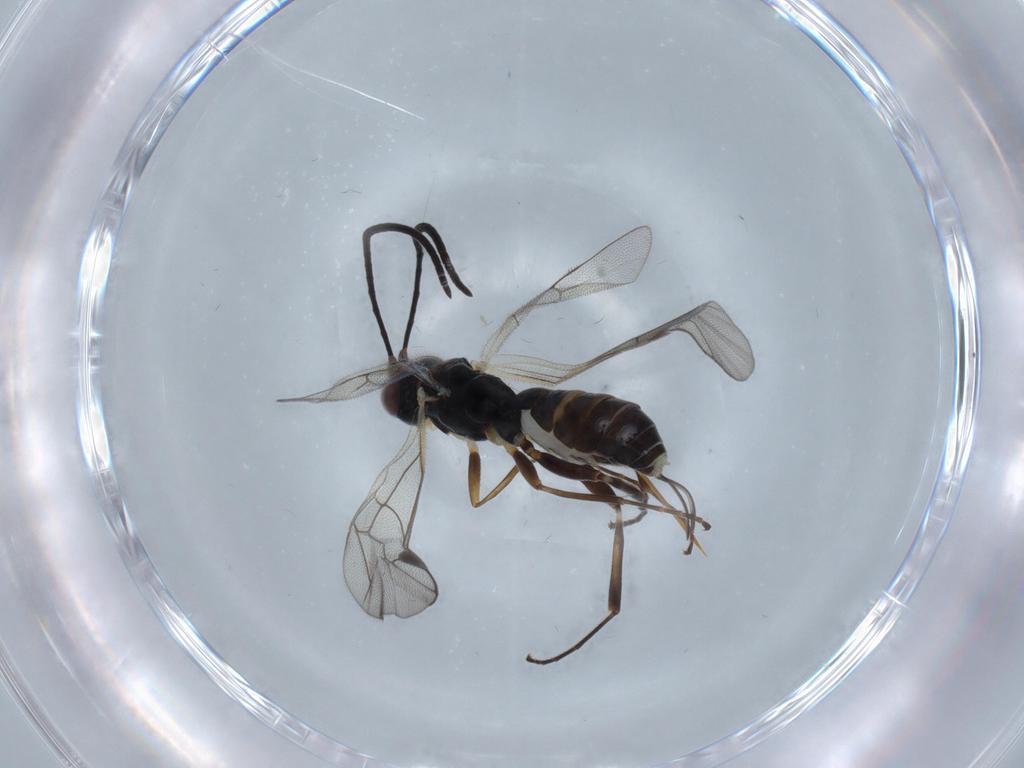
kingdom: Animalia
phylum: Arthropoda
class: Insecta
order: Hymenoptera
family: Ichneumonidae
